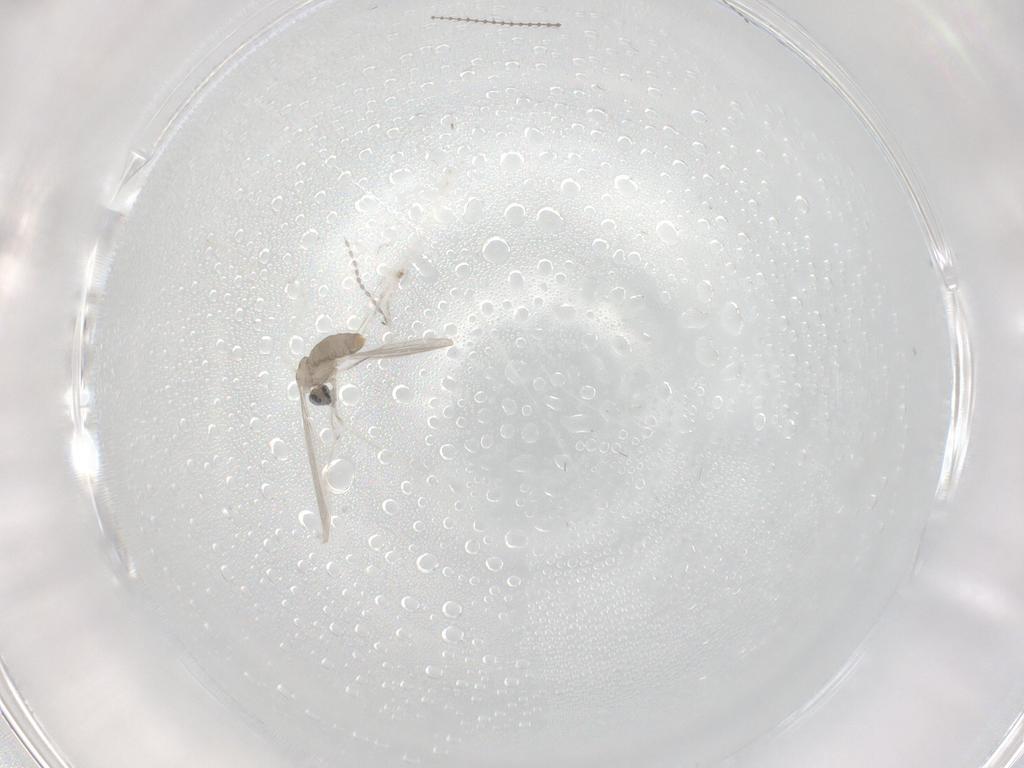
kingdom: Animalia
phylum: Arthropoda
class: Insecta
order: Diptera
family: Cecidomyiidae
